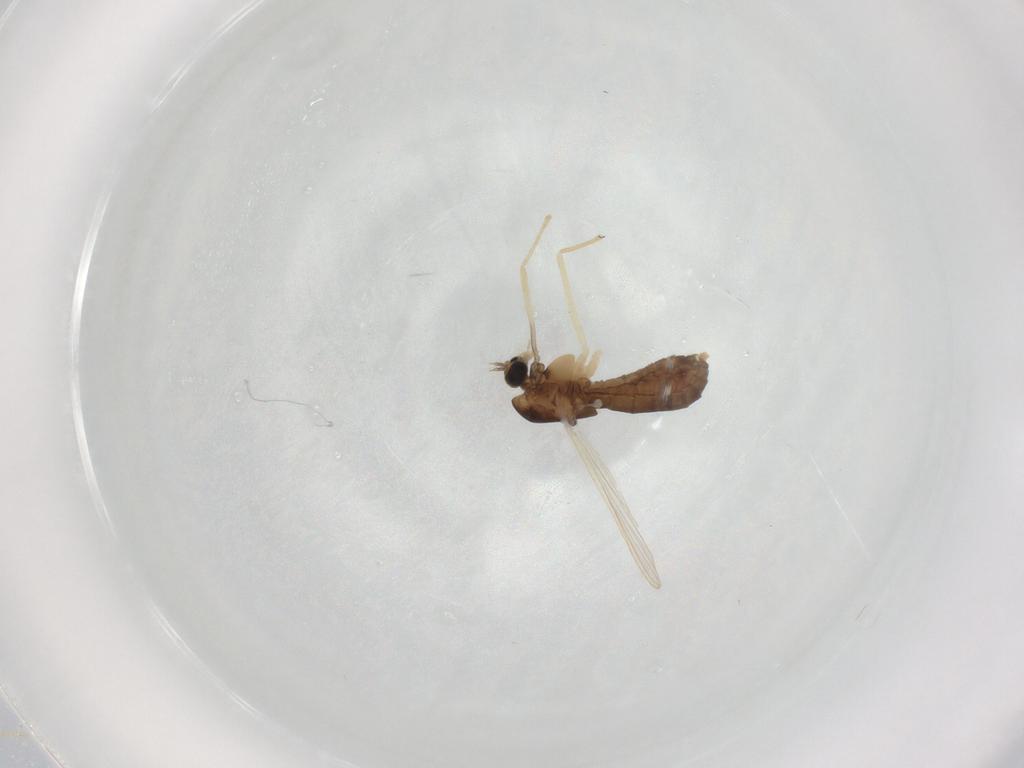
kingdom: Animalia
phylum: Arthropoda
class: Insecta
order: Diptera
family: Chironomidae
